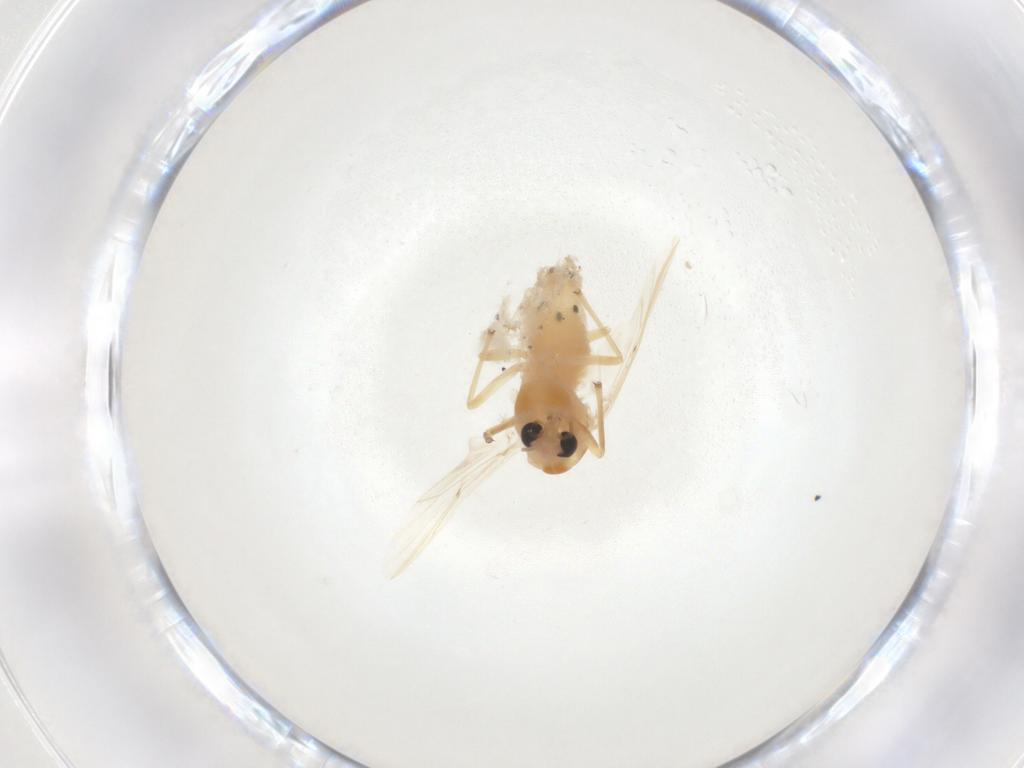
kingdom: Animalia
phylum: Arthropoda
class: Insecta
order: Diptera
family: Chironomidae
